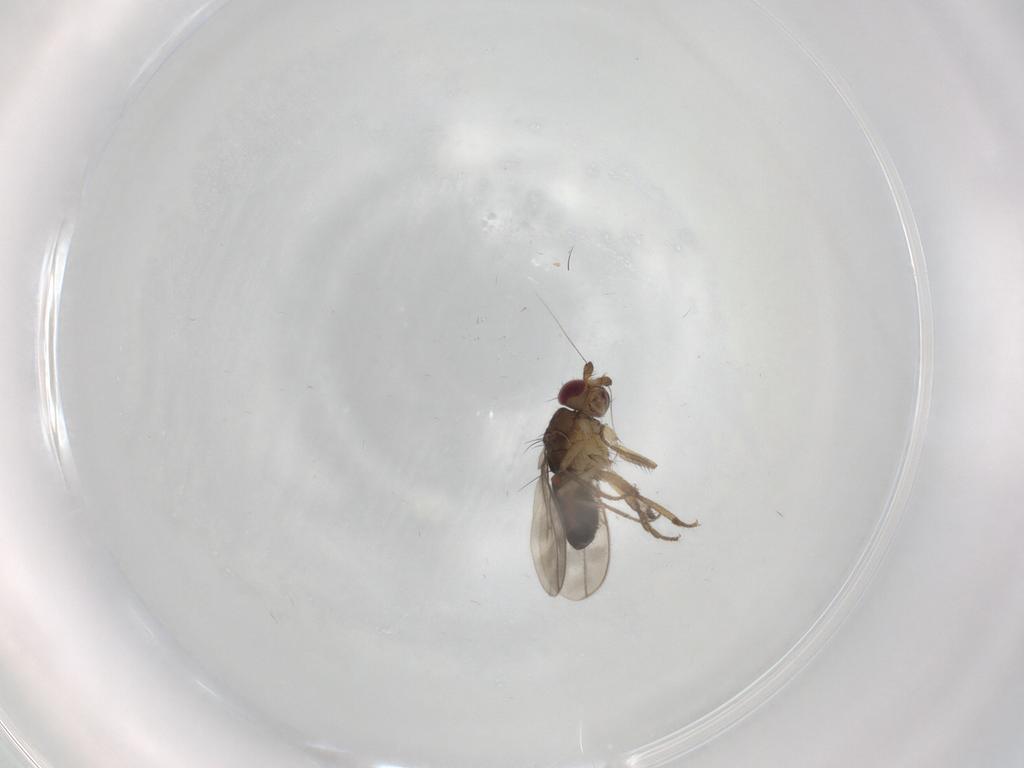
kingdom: Animalia
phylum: Arthropoda
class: Insecta
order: Diptera
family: Sphaeroceridae
